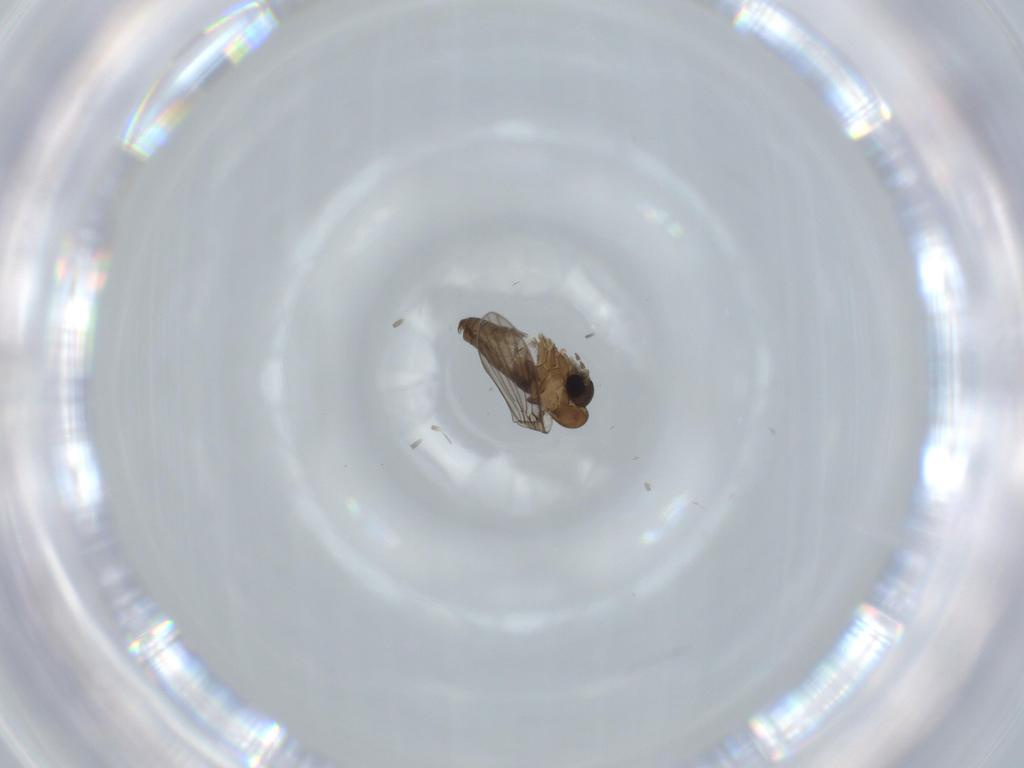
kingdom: Animalia
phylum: Arthropoda
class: Insecta
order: Diptera
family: Psychodidae
